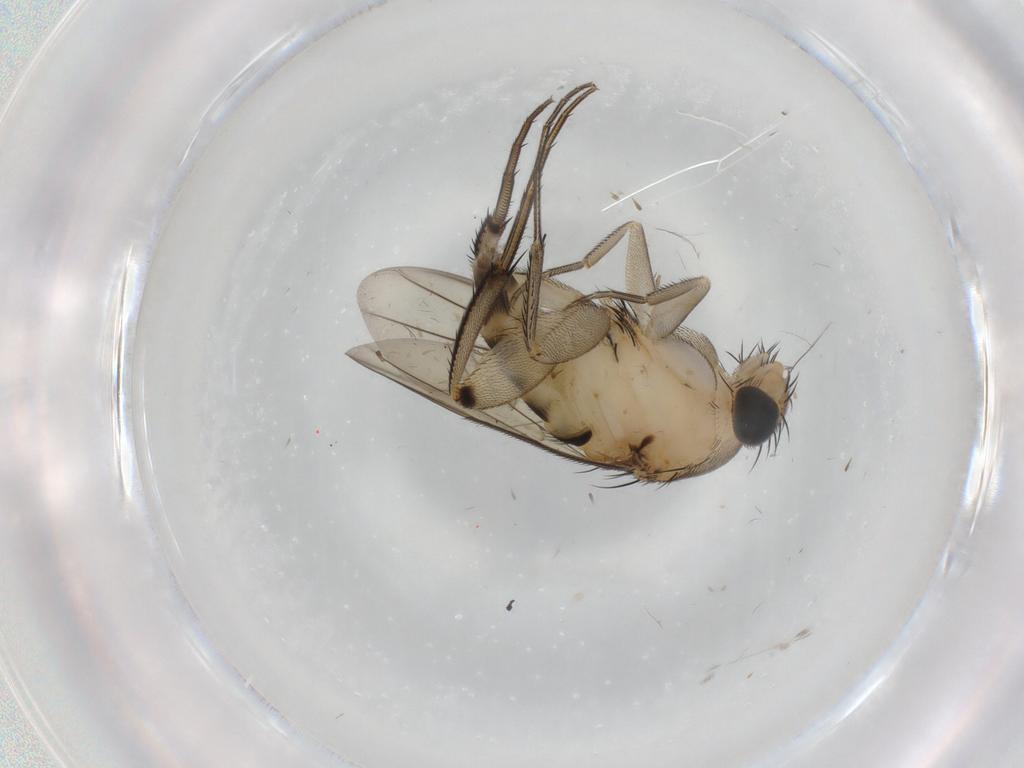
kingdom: Animalia
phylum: Arthropoda
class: Insecta
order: Diptera
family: Phoridae
